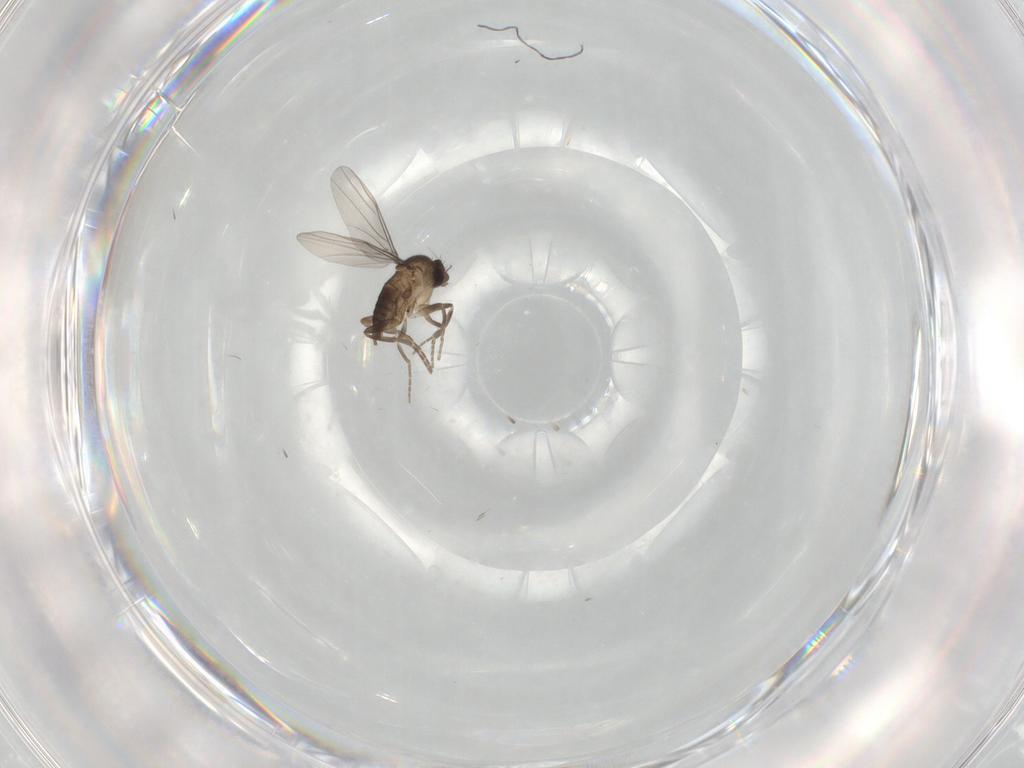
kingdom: Animalia
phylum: Arthropoda
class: Insecta
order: Diptera
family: Phoridae
